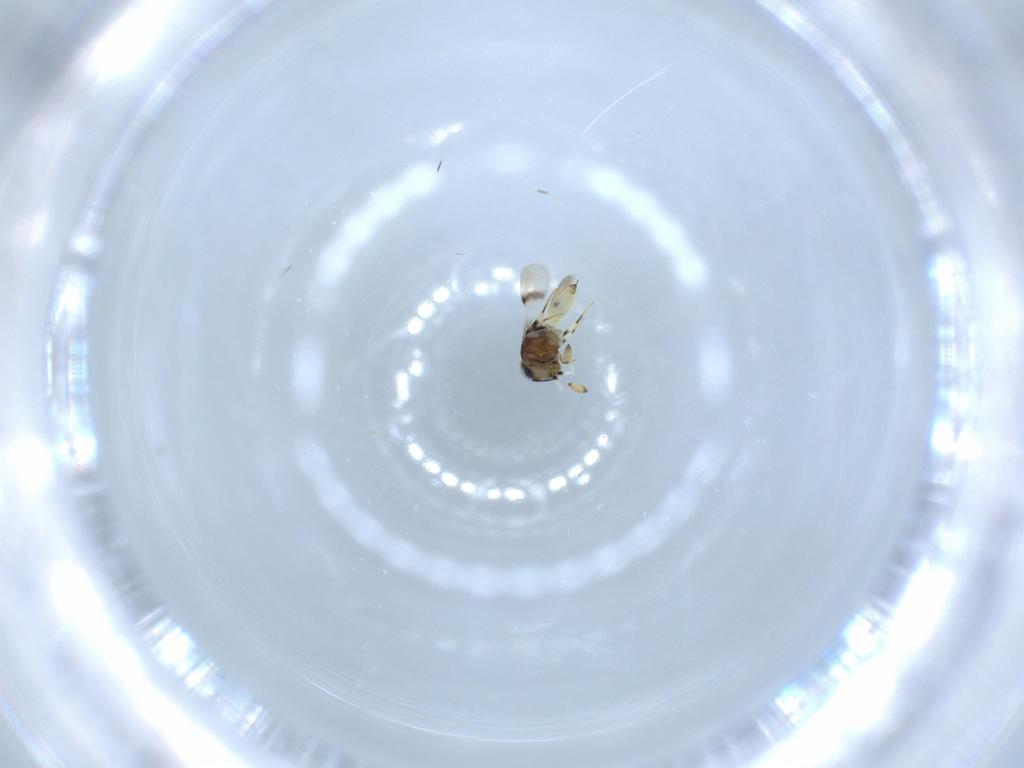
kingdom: Animalia
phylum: Arthropoda
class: Insecta
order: Hymenoptera
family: Scelionidae
